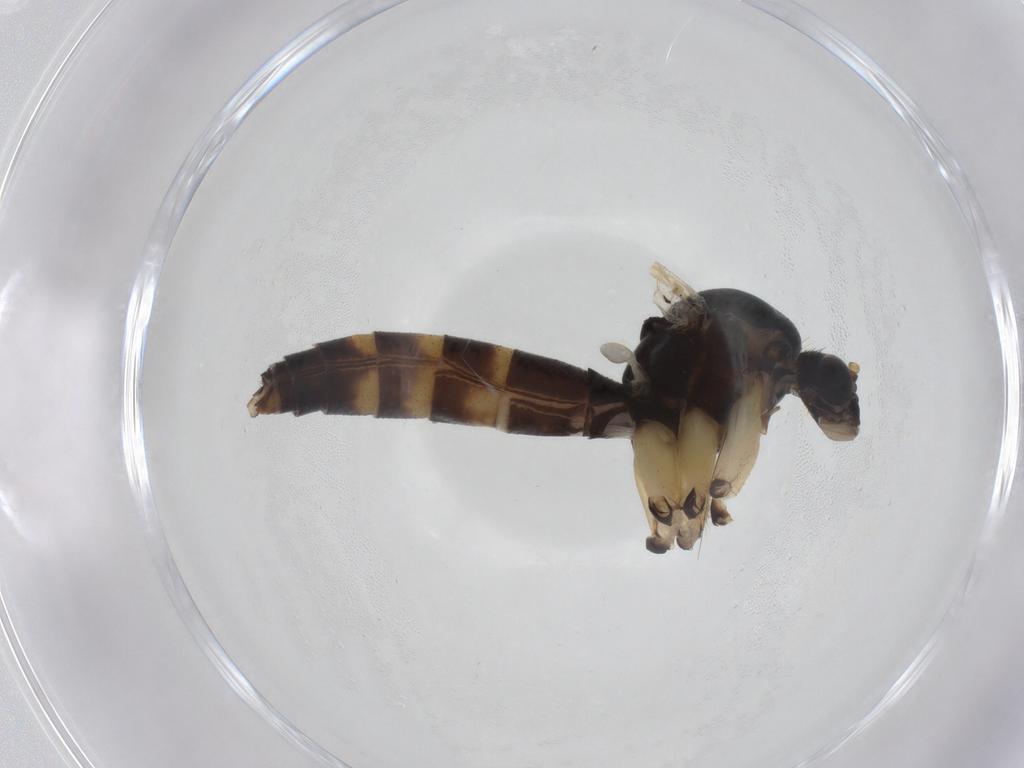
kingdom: Animalia
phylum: Arthropoda
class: Insecta
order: Diptera
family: Mycetophilidae
